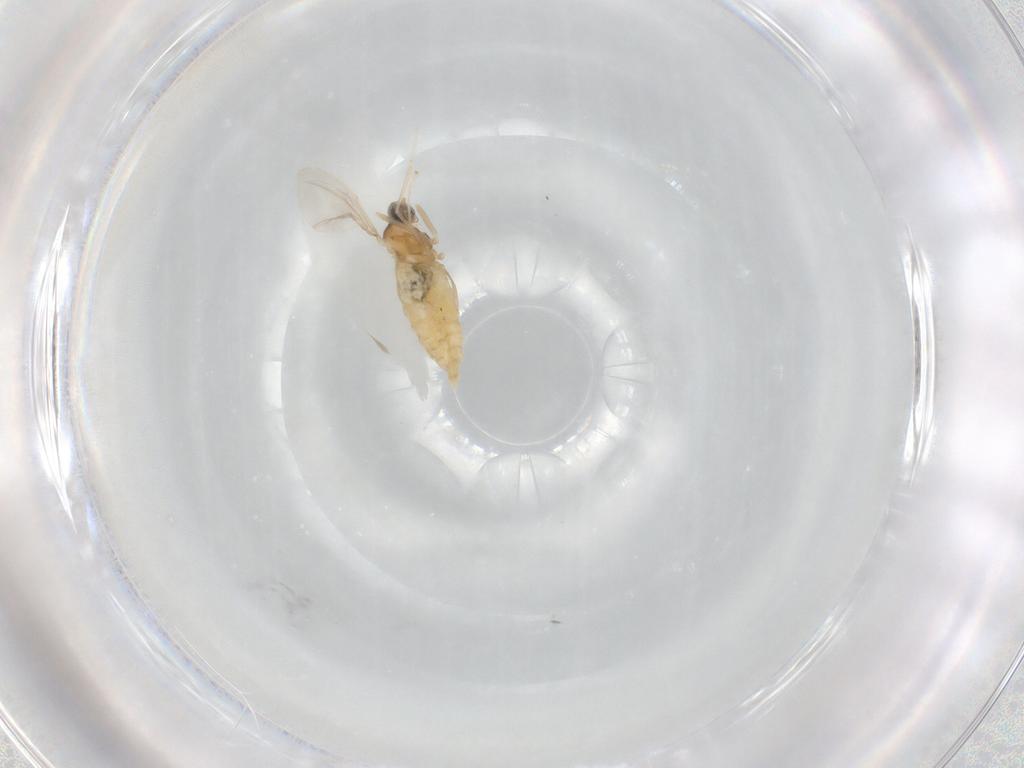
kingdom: Animalia
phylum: Arthropoda
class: Insecta
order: Diptera
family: Cecidomyiidae
